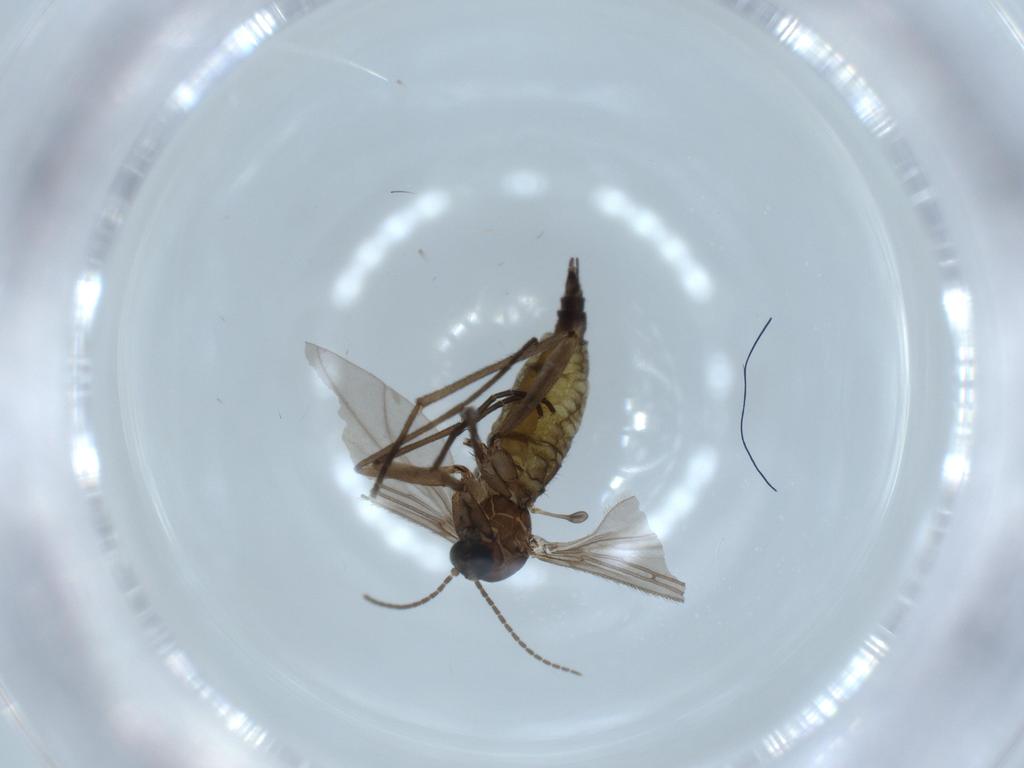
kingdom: Animalia
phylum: Arthropoda
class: Insecta
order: Diptera
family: Sciaridae
